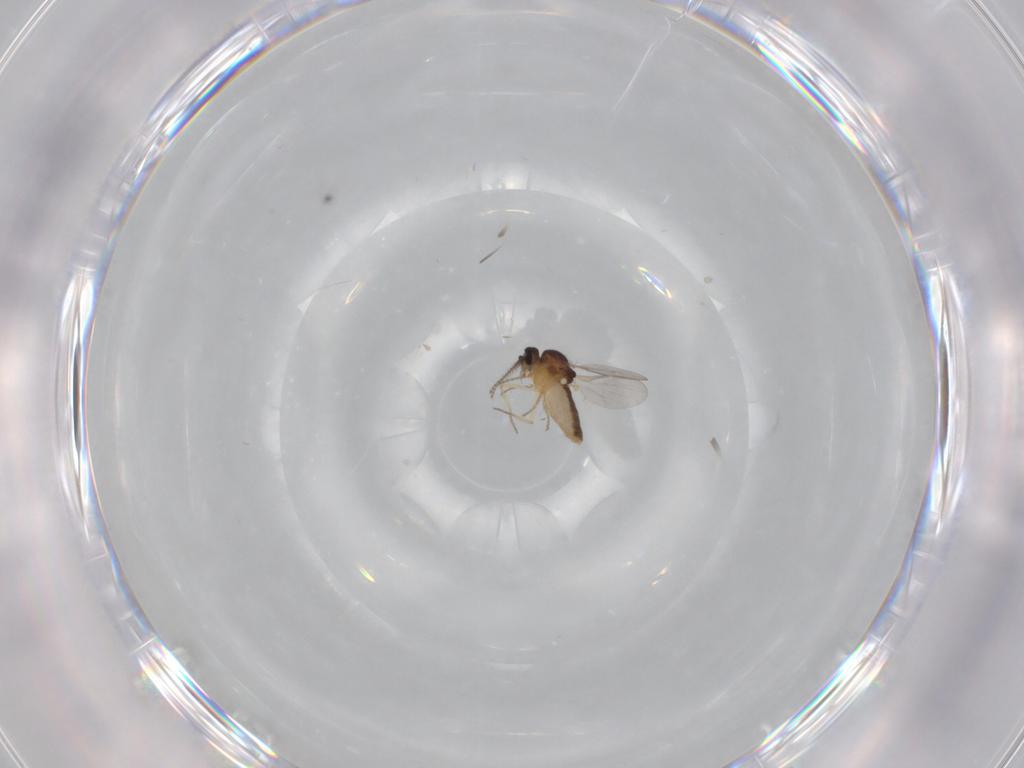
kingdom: Animalia
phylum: Arthropoda
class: Insecta
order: Diptera
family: Ceratopogonidae
